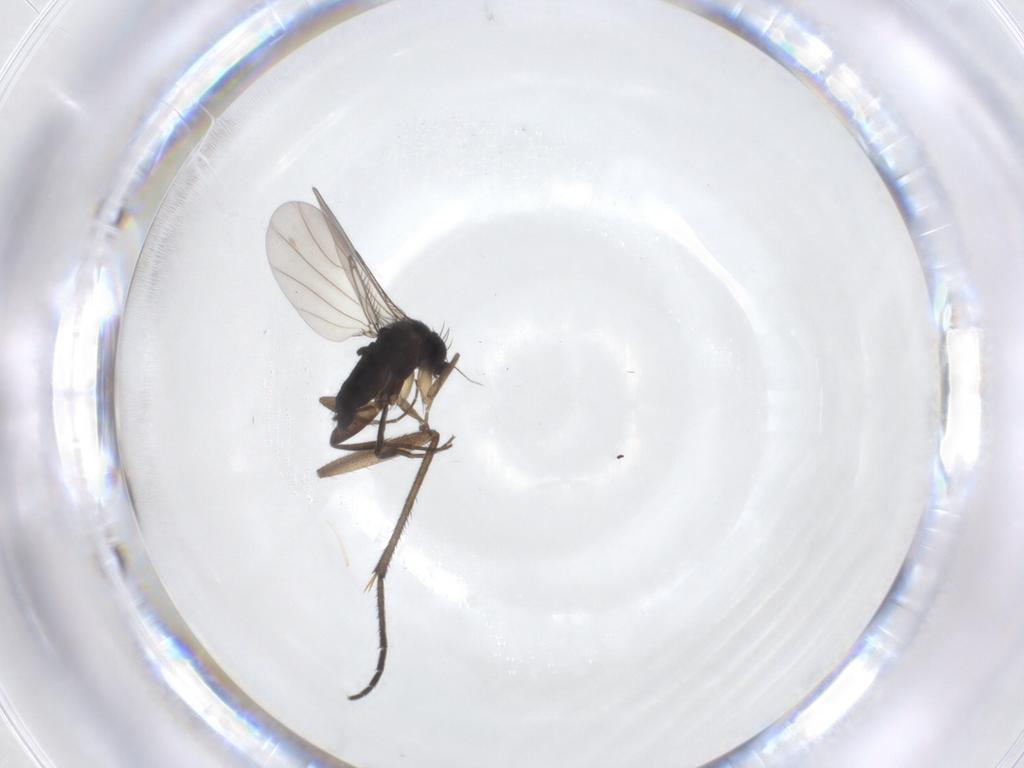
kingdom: Animalia
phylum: Arthropoda
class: Insecta
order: Diptera
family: Phoridae
